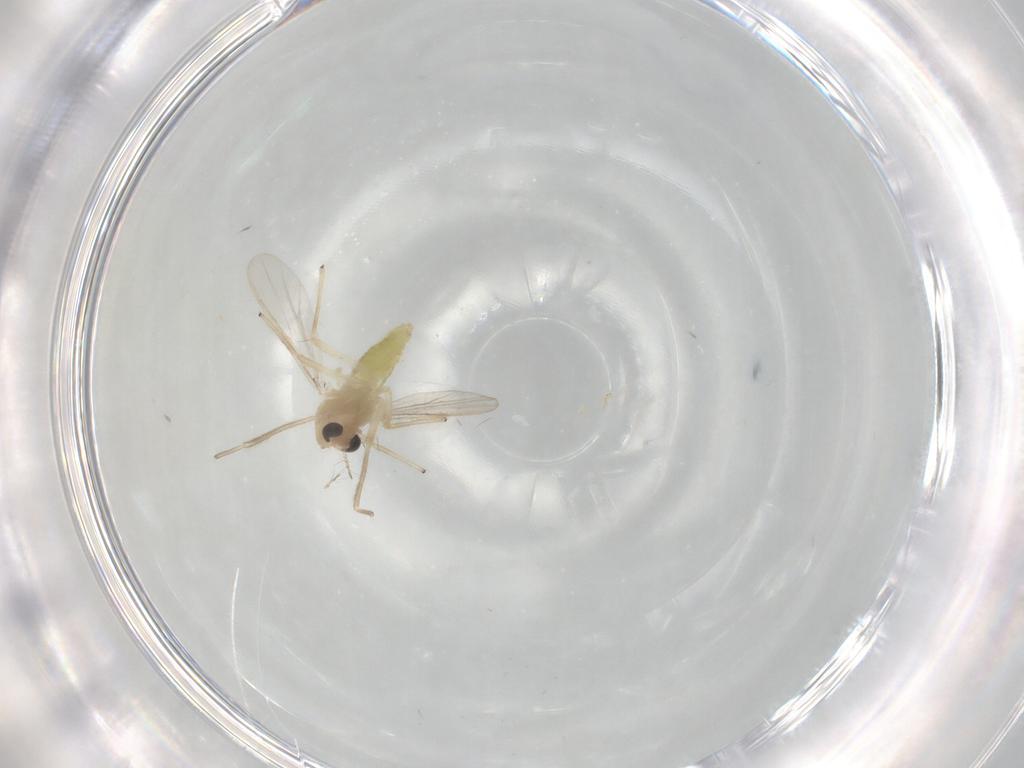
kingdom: Animalia
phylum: Arthropoda
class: Insecta
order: Diptera
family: Chironomidae
